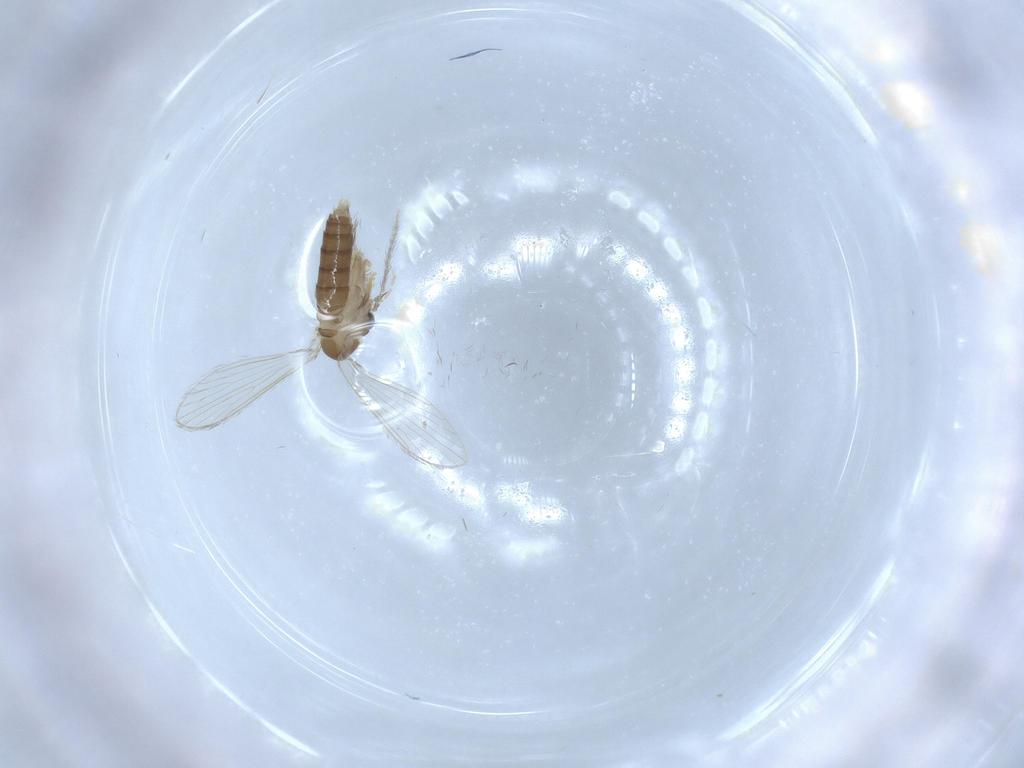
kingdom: Animalia
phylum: Arthropoda
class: Insecta
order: Diptera
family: Psychodidae
